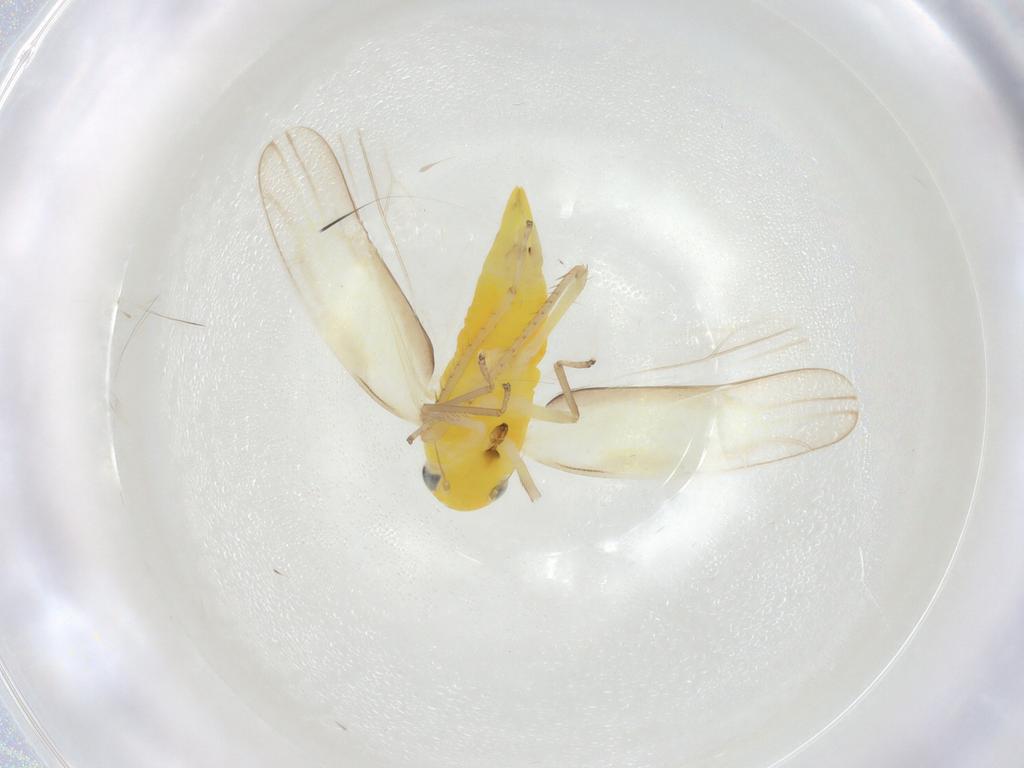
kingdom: Animalia
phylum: Arthropoda
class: Insecta
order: Hemiptera
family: Cicadellidae
